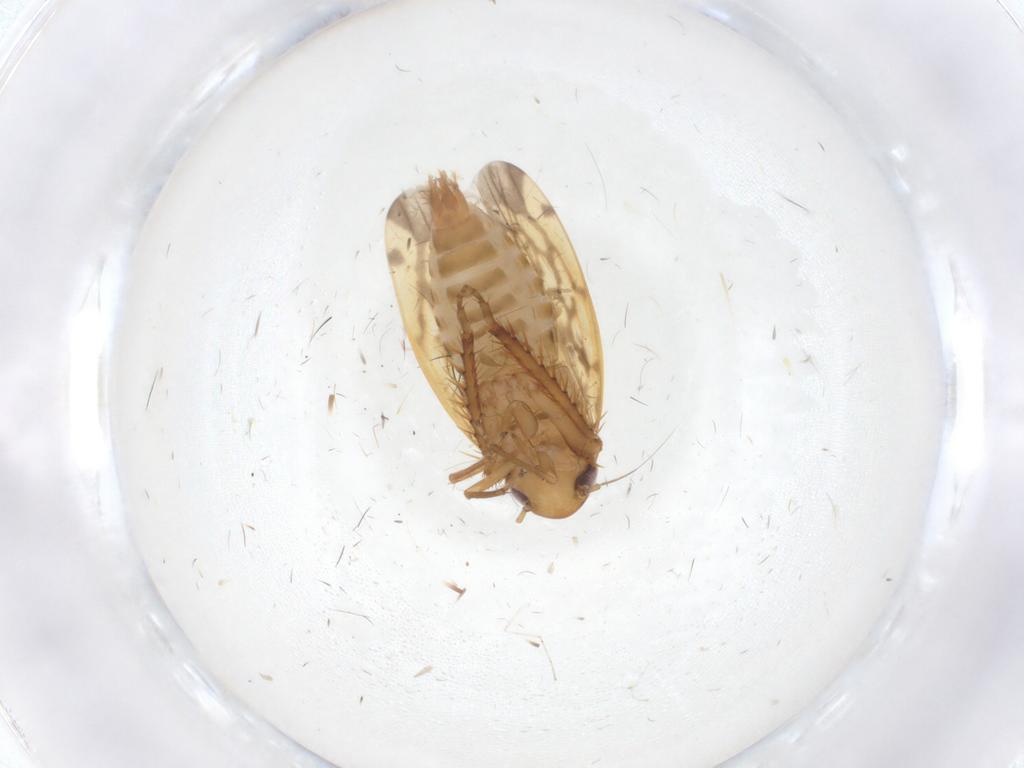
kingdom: Animalia
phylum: Arthropoda
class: Insecta
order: Hemiptera
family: Cicadellidae
